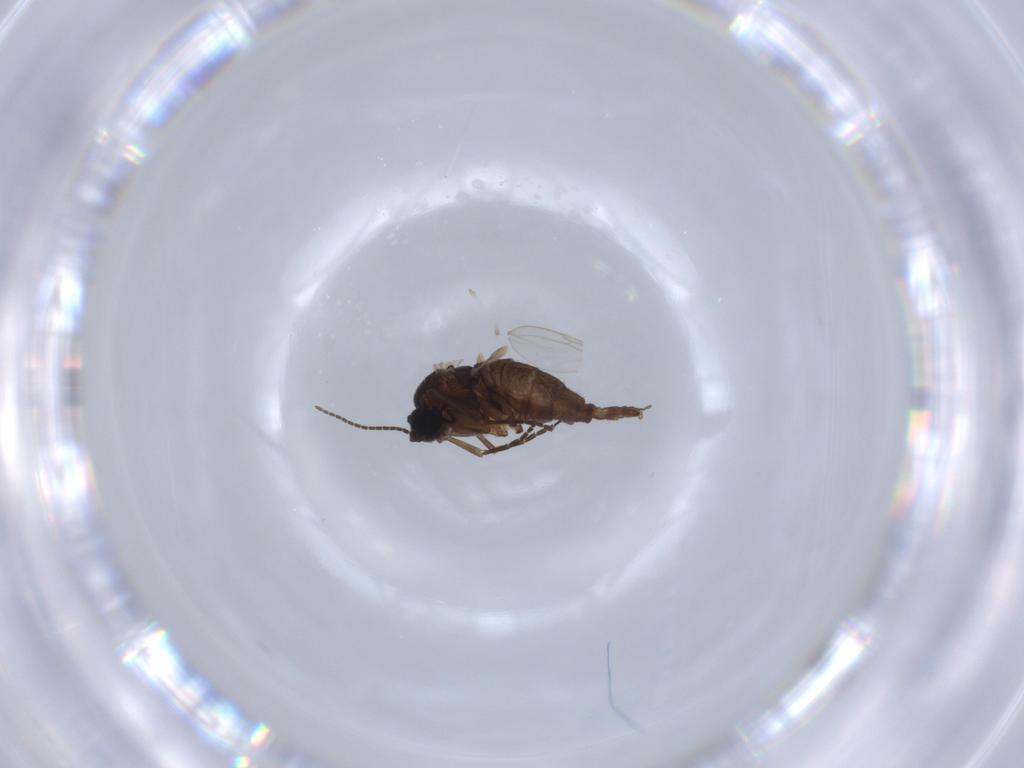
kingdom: Animalia
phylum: Arthropoda
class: Insecta
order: Diptera
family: Sciaridae
